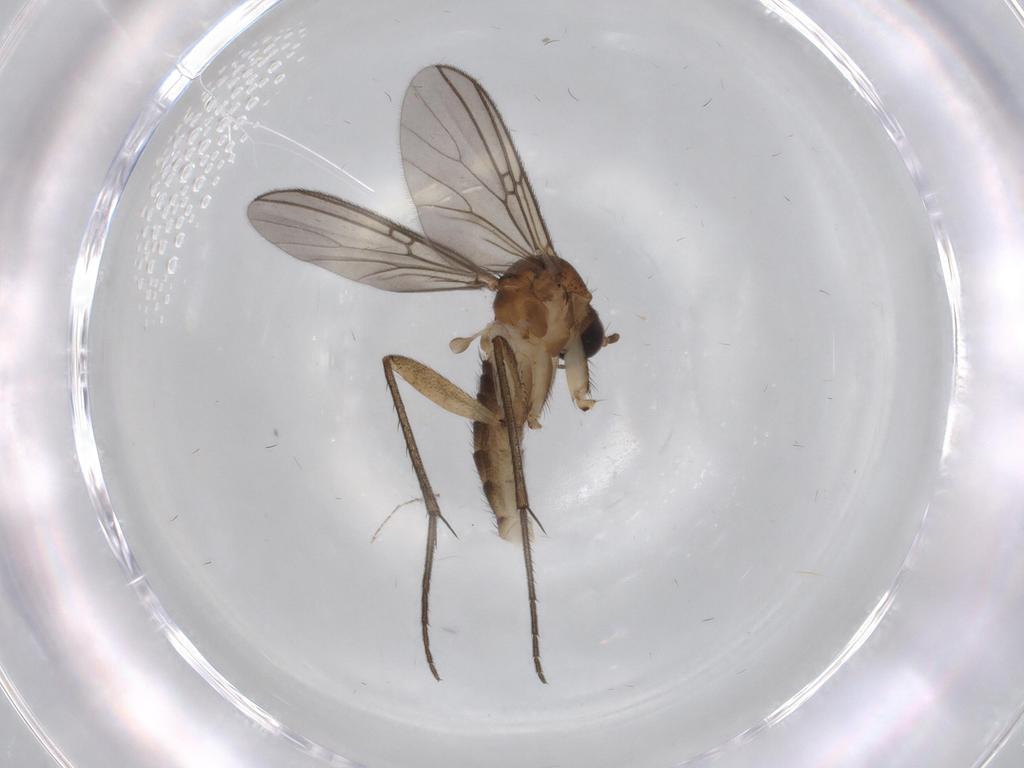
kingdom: Animalia
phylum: Arthropoda
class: Insecta
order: Diptera
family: Chironomidae
